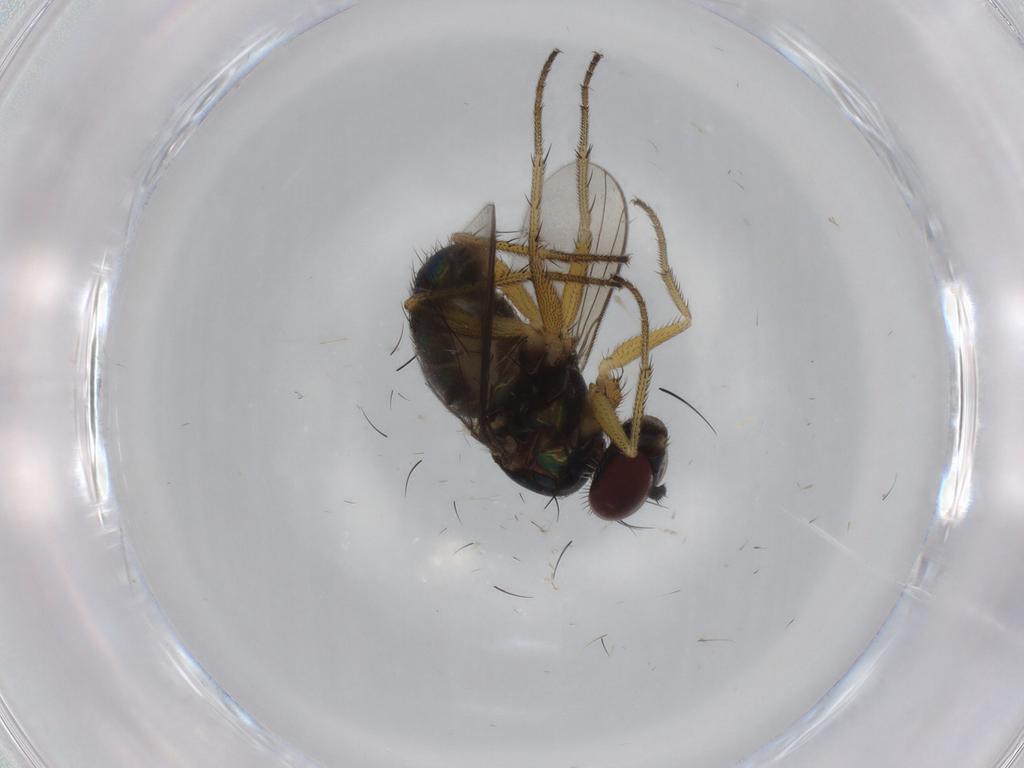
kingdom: Animalia
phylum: Arthropoda
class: Insecta
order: Diptera
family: Dolichopodidae
